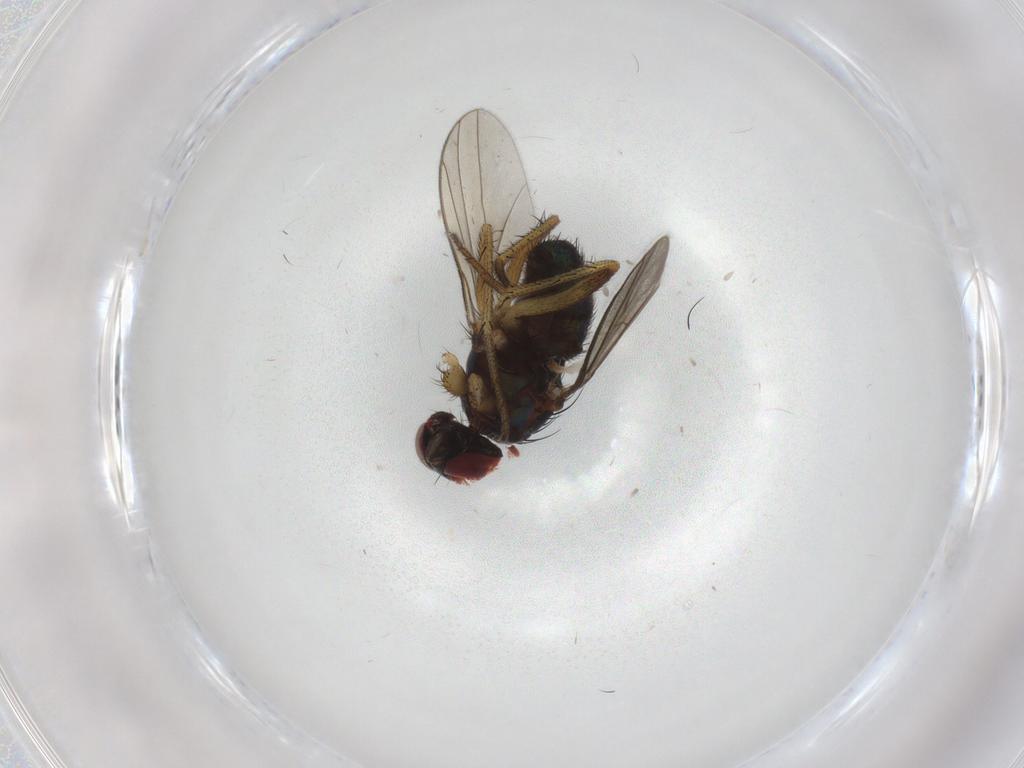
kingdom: Animalia
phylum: Arthropoda
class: Insecta
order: Diptera
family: Dolichopodidae
